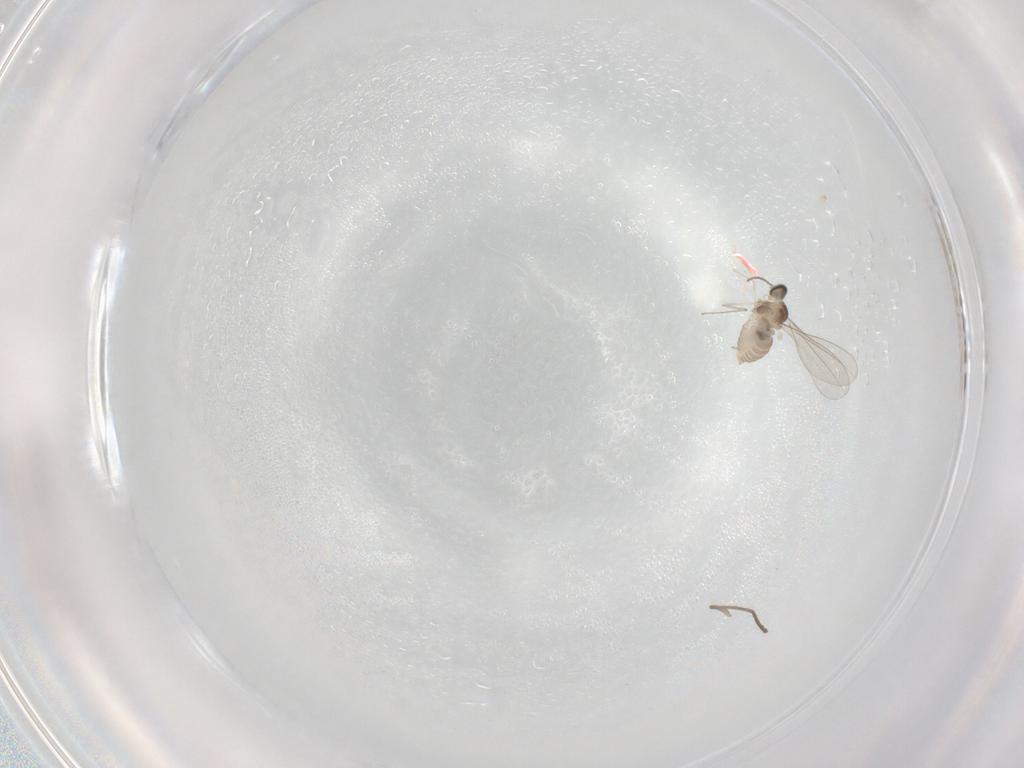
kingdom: Animalia
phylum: Arthropoda
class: Insecta
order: Diptera
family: Cecidomyiidae
